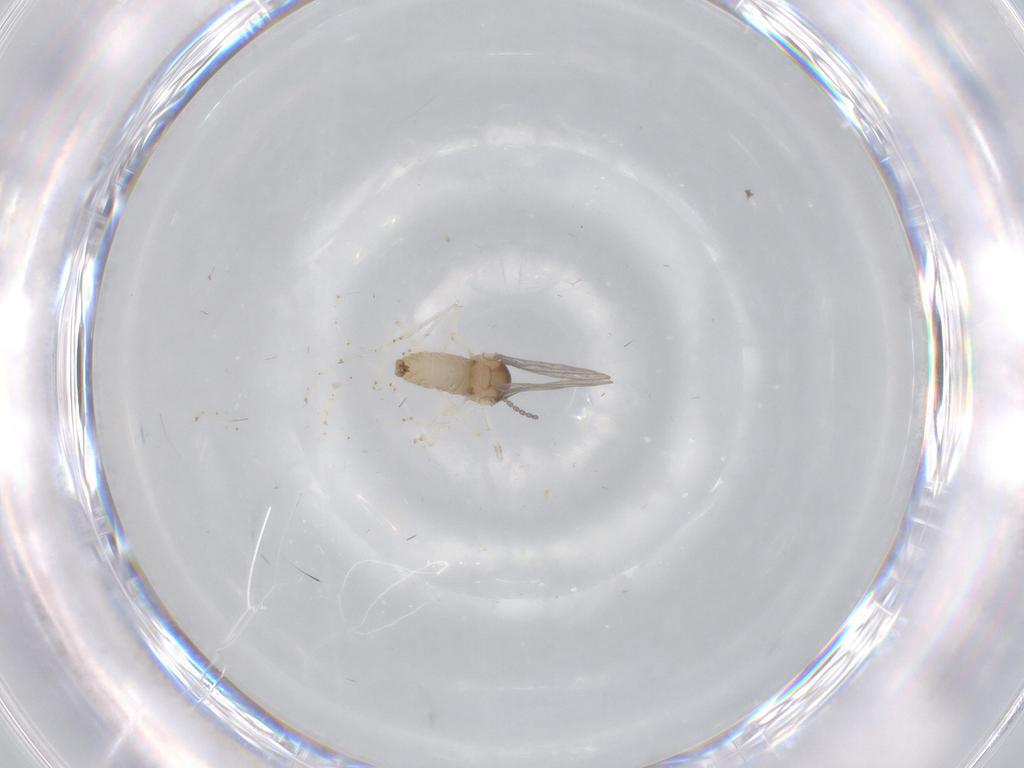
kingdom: Animalia
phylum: Arthropoda
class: Insecta
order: Diptera
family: Cecidomyiidae
